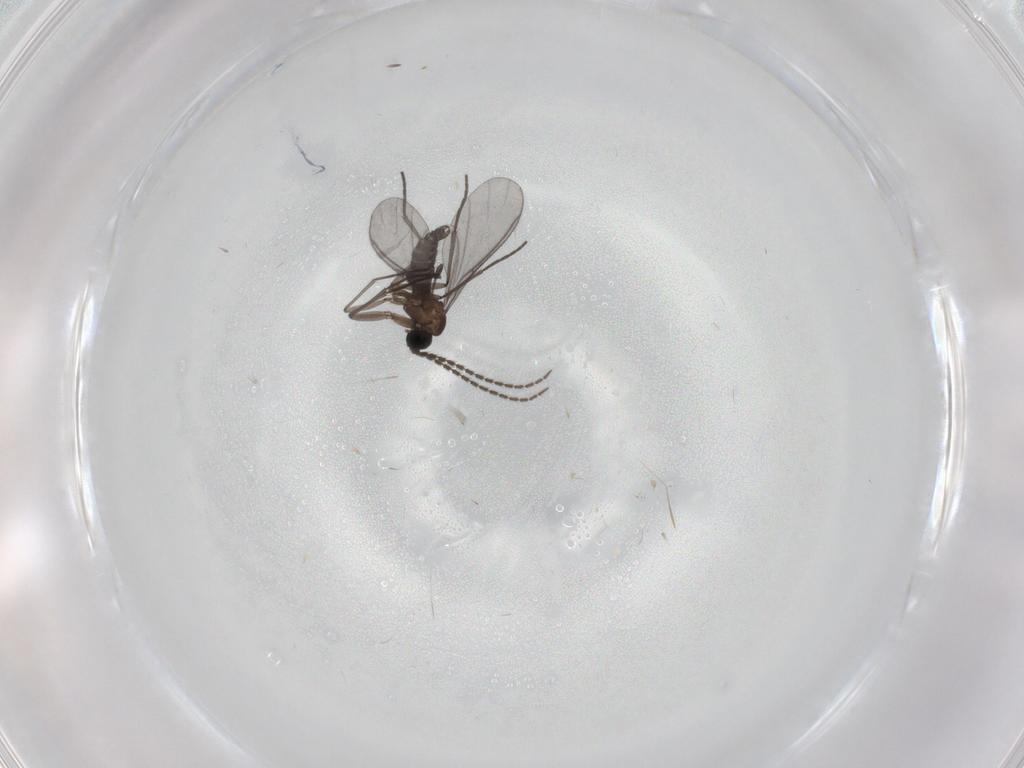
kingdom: Animalia
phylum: Arthropoda
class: Insecta
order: Diptera
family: Sciaridae
